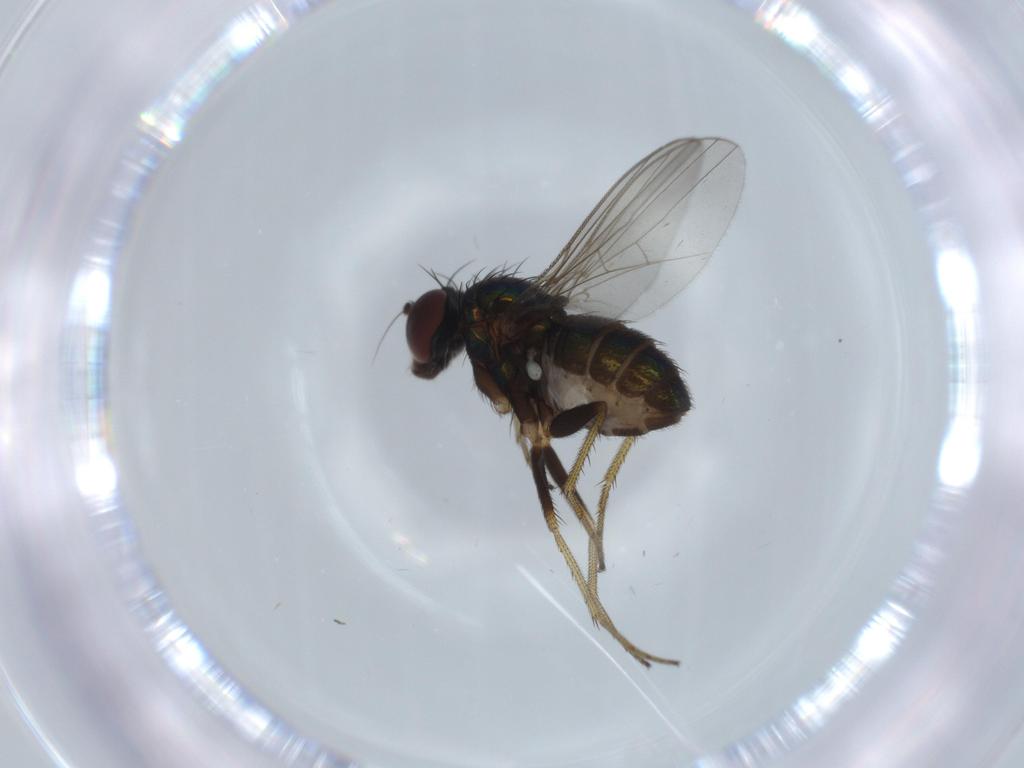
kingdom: Animalia
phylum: Arthropoda
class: Insecta
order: Diptera
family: Dolichopodidae
